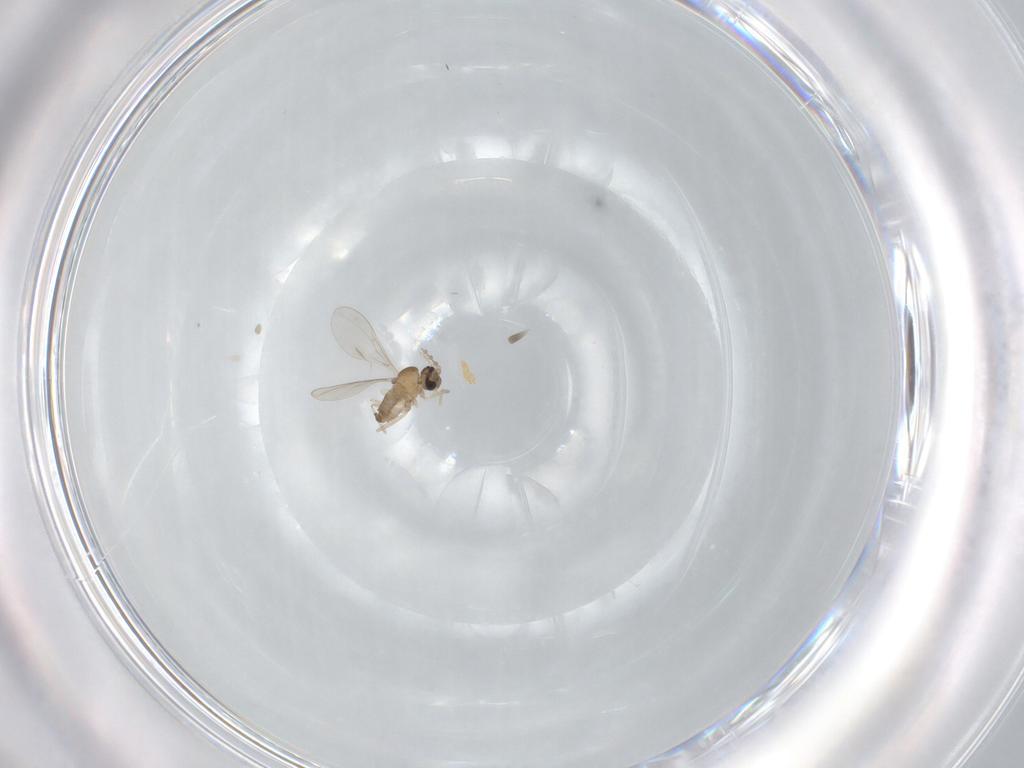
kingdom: Animalia
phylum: Arthropoda
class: Insecta
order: Diptera
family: Cecidomyiidae
